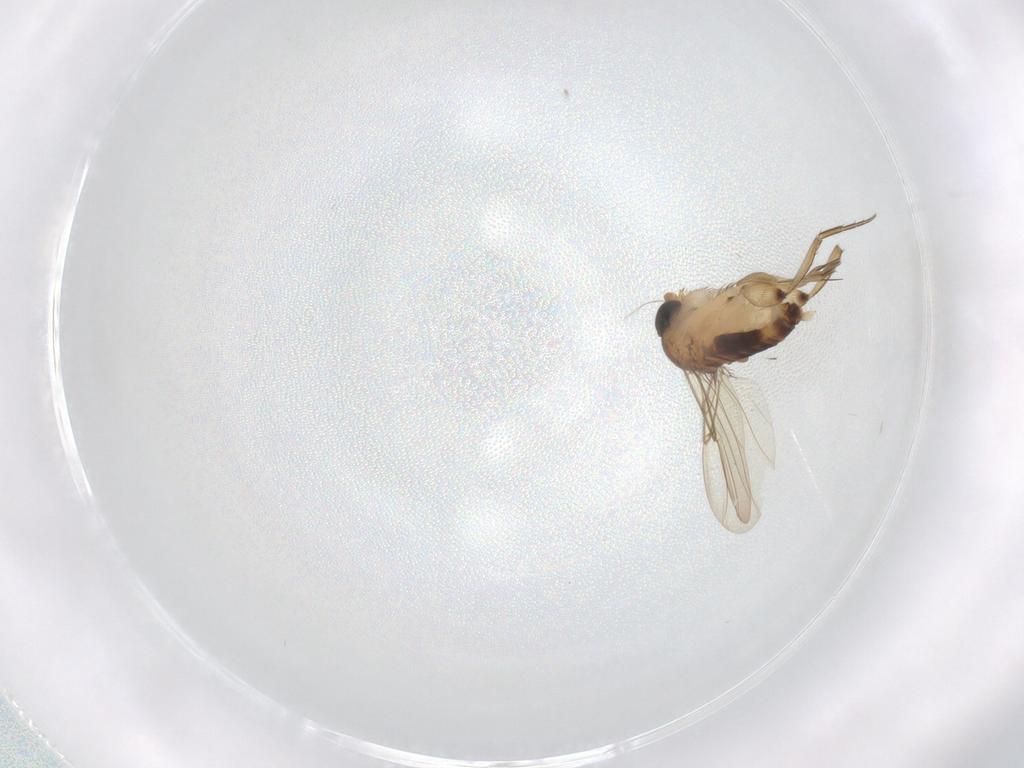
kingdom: Animalia
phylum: Arthropoda
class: Insecta
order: Diptera
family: Phoridae
